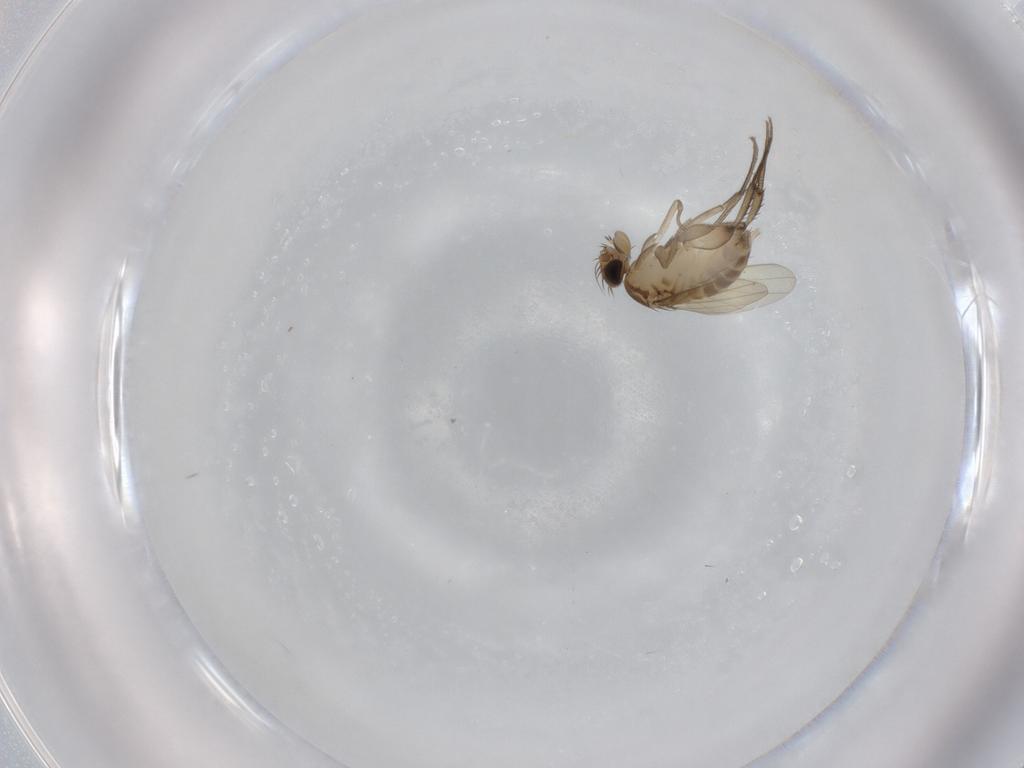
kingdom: Animalia
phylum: Arthropoda
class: Insecta
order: Diptera
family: Phoridae
